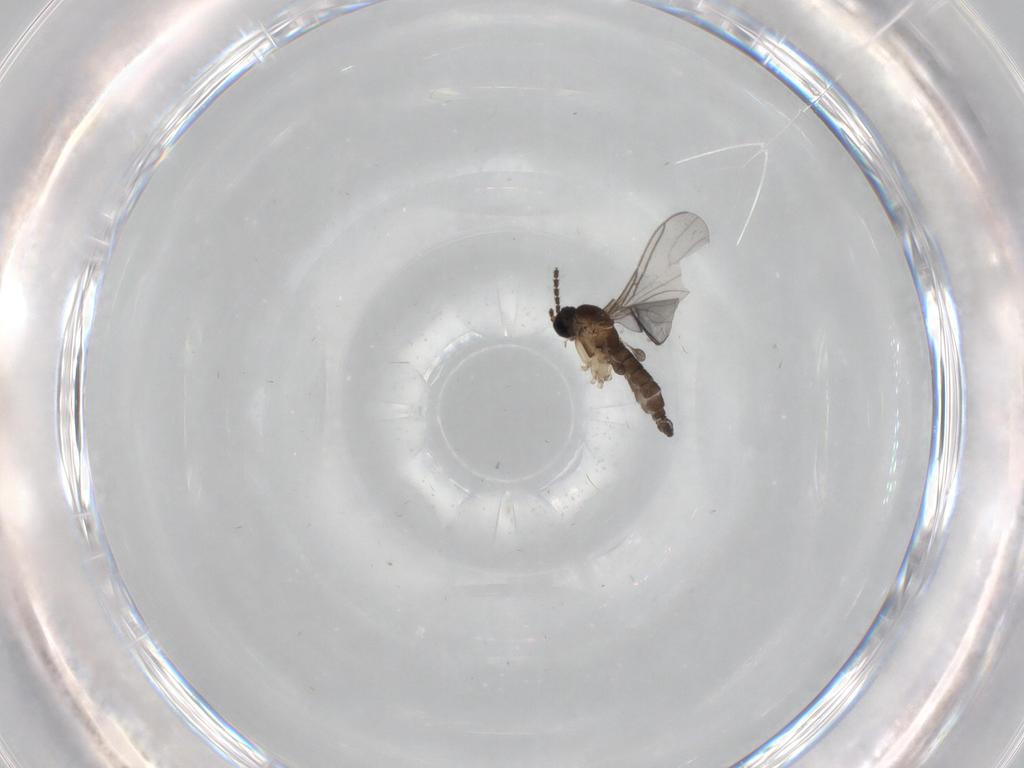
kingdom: Animalia
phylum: Arthropoda
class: Insecta
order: Diptera
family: Sciaridae
